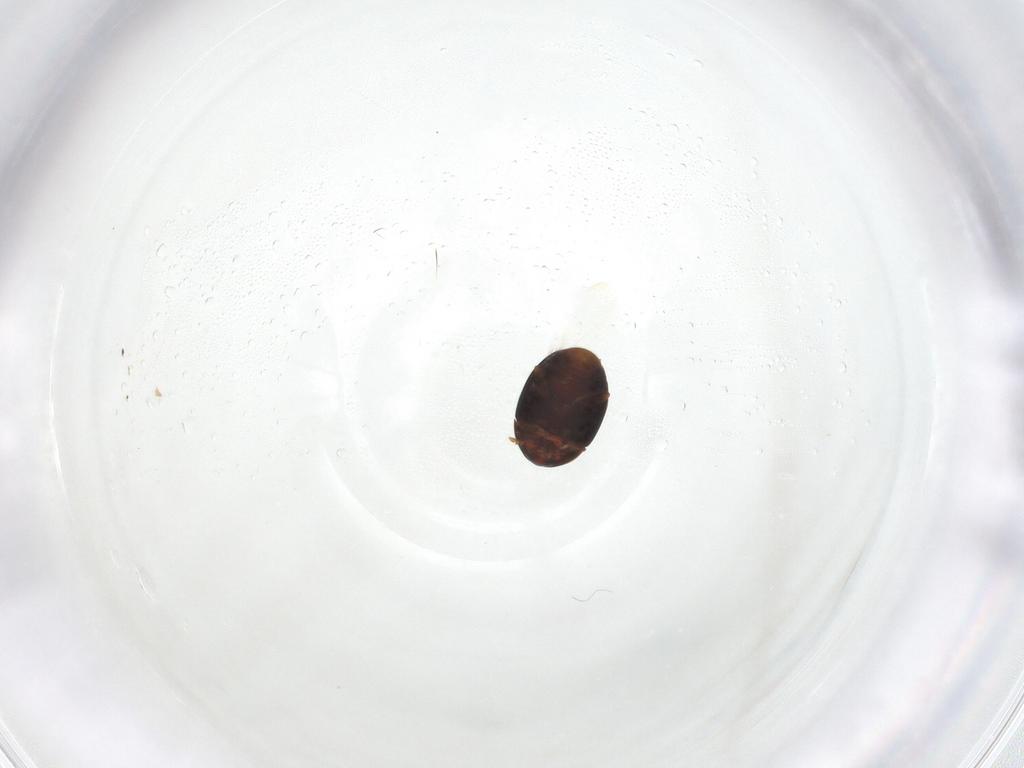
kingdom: Animalia
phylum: Arthropoda
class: Insecta
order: Coleoptera
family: Corylophidae
